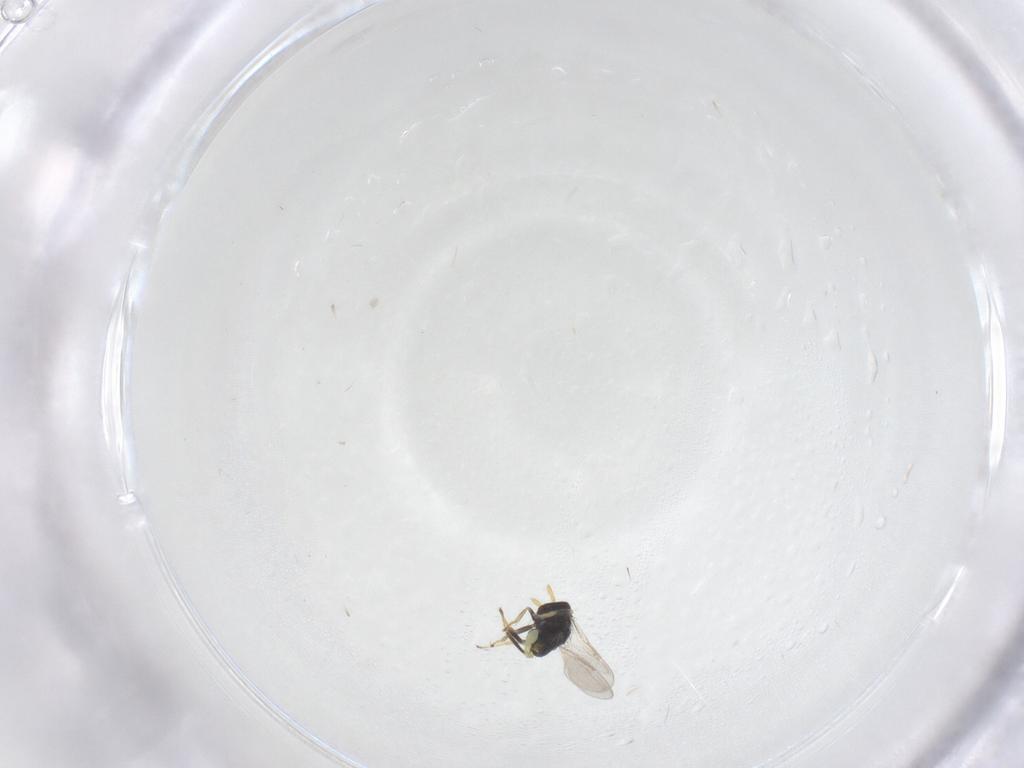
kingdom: Animalia
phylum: Arthropoda
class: Insecta
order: Hymenoptera
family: Aphelinidae
